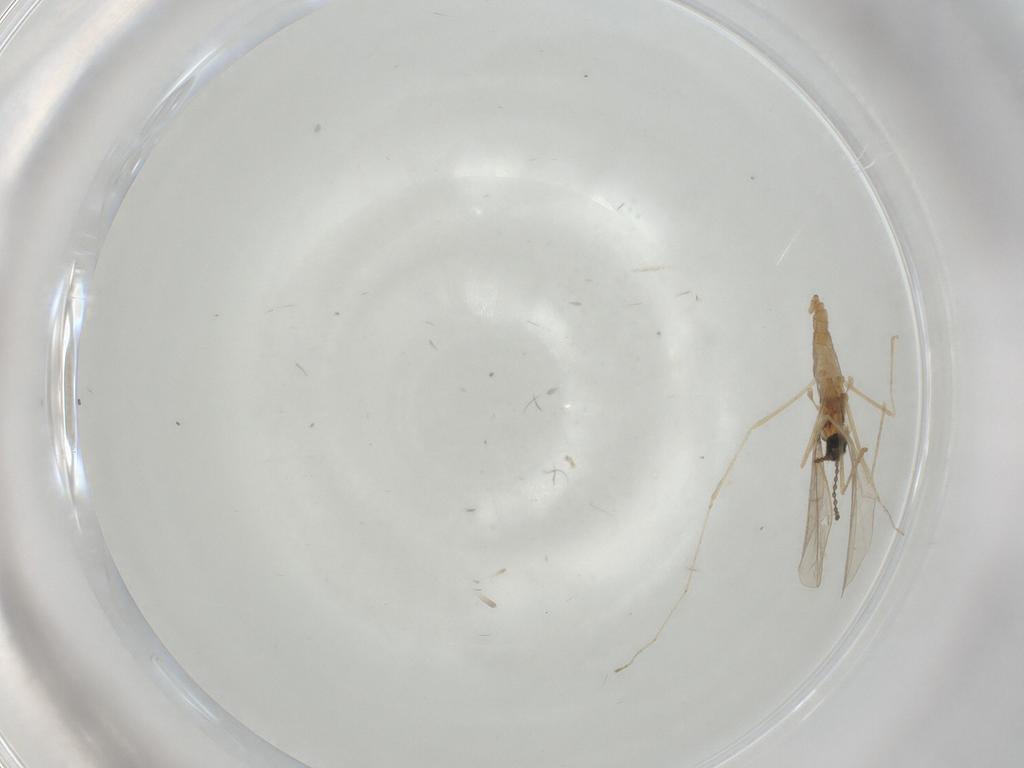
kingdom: Animalia
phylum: Arthropoda
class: Insecta
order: Diptera
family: Cecidomyiidae
